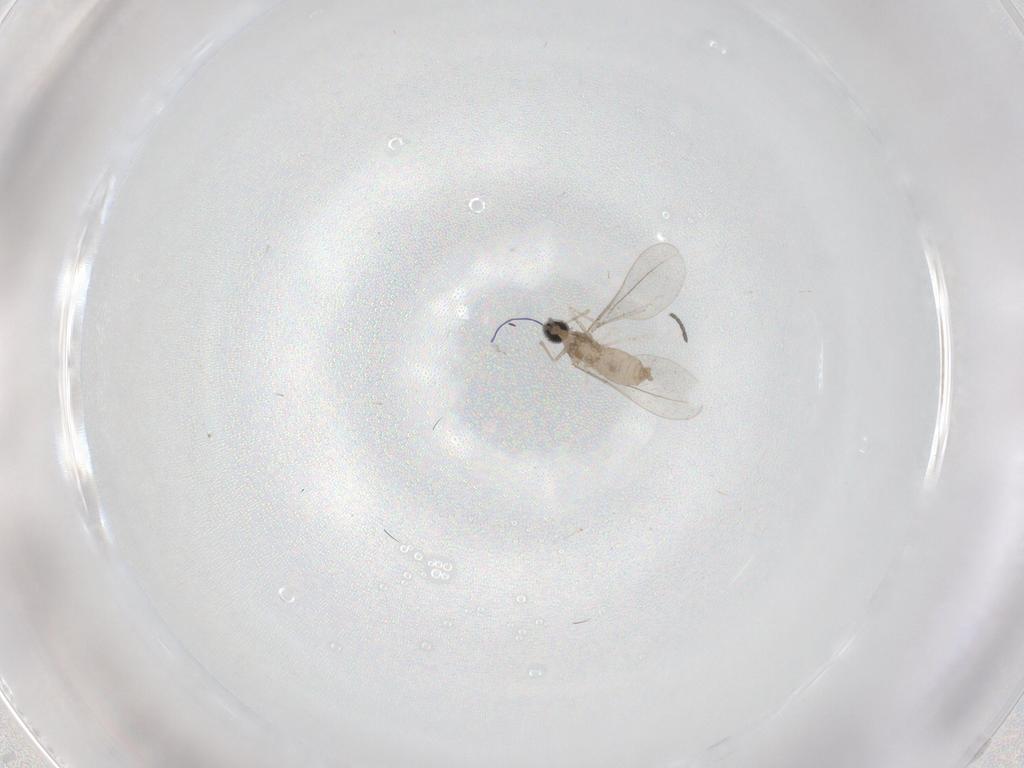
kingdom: Animalia
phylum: Arthropoda
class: Insecta
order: Diptera
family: Cecidomyiidae
